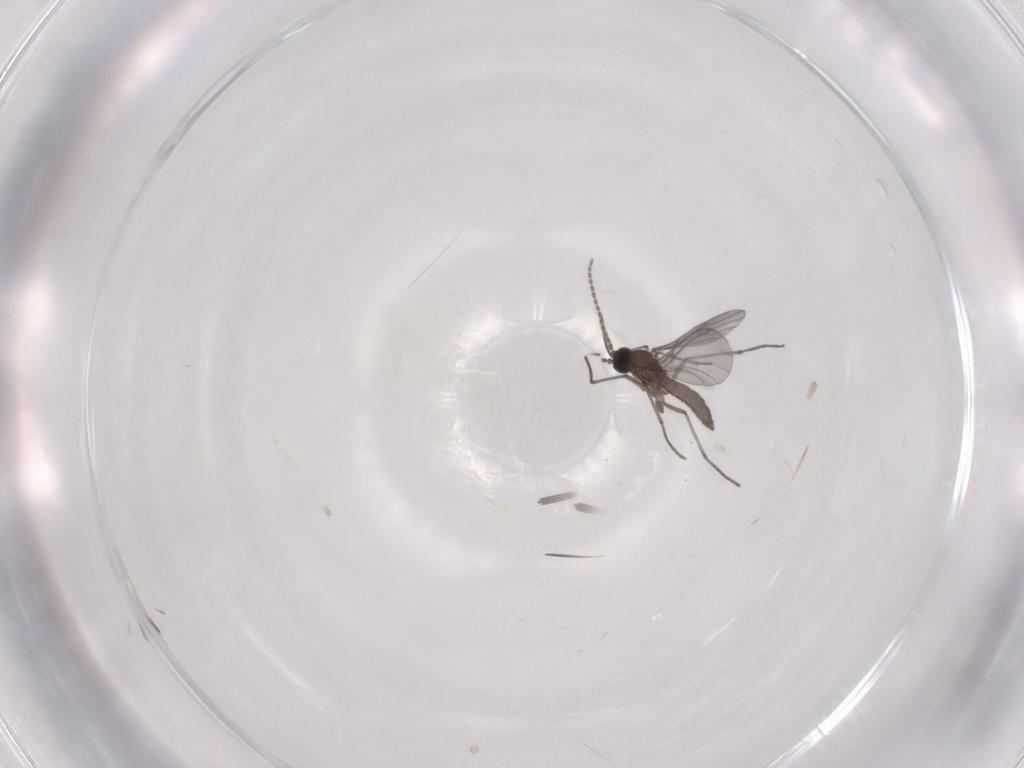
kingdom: Animalia
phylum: Arthropoda
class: Insecta
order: Diptera
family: Sciaridae
